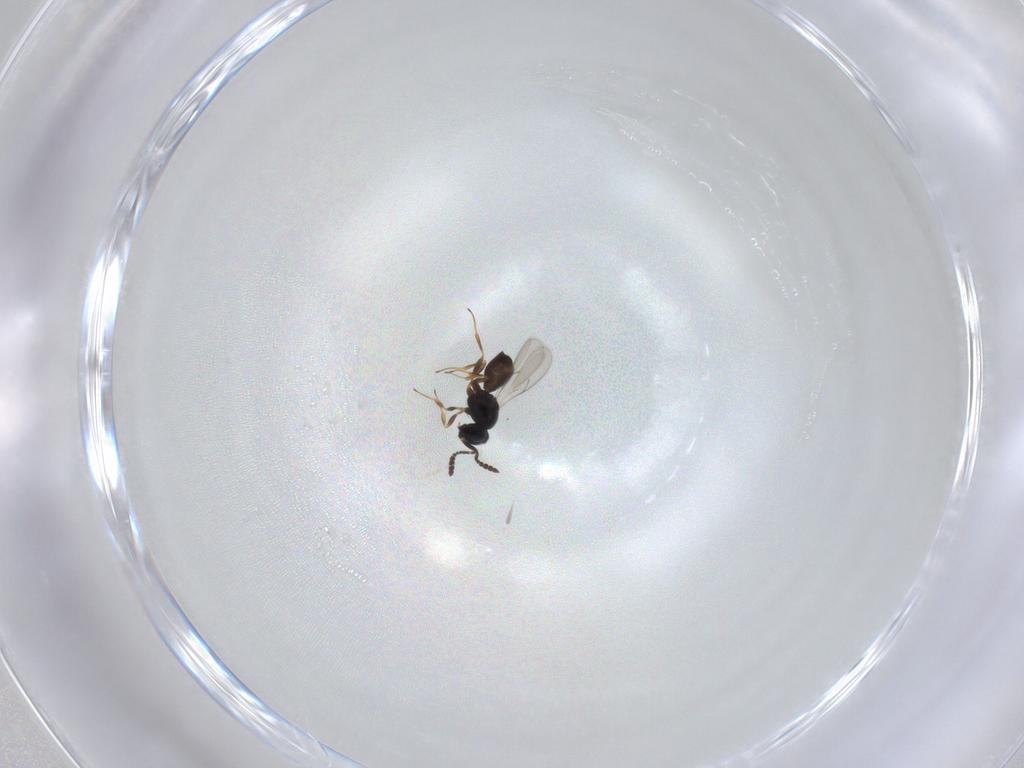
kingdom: Animalia
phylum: Arthropoda
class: Insecta
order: Hymenoptera
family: Scelionidae
